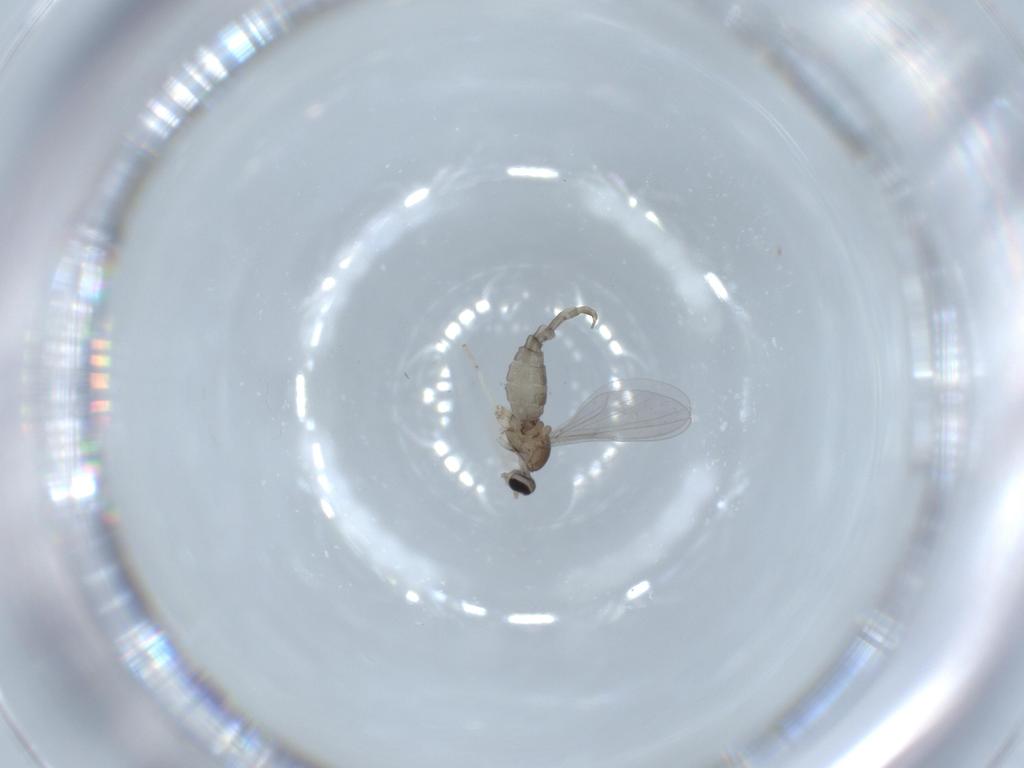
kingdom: Animalia
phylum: Arthropoda
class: Insecta
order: Diptera
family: Cecidomyiidae
